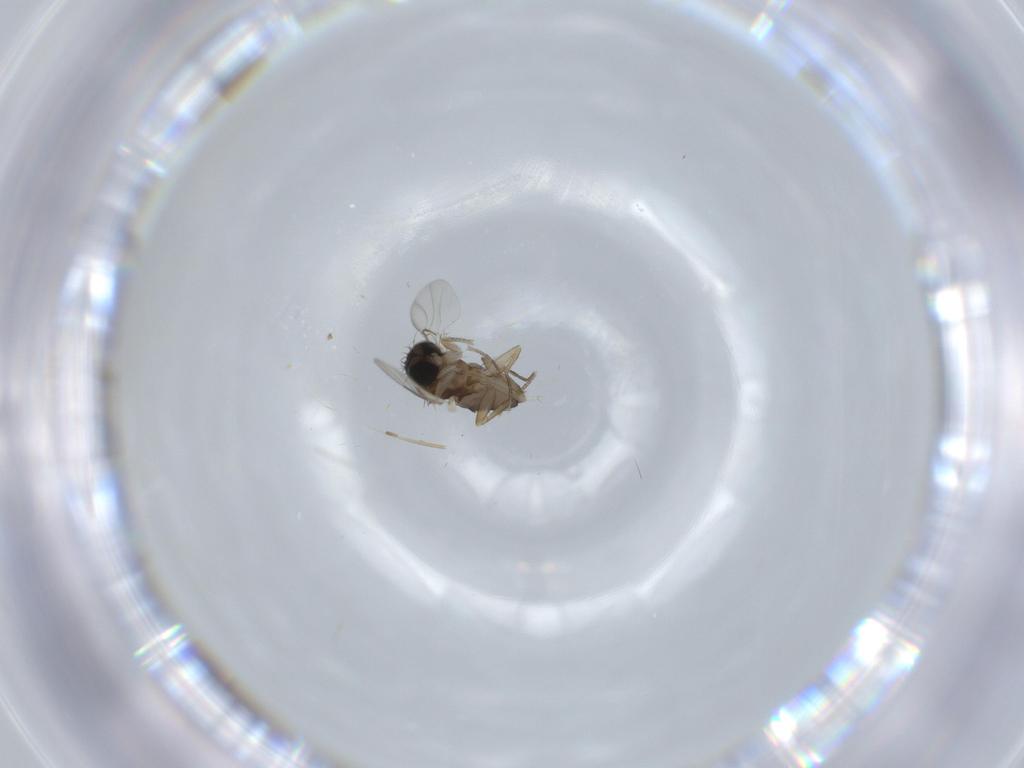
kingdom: Animalia
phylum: Arthropoda
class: Insecta
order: Diptera
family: Phoridae
